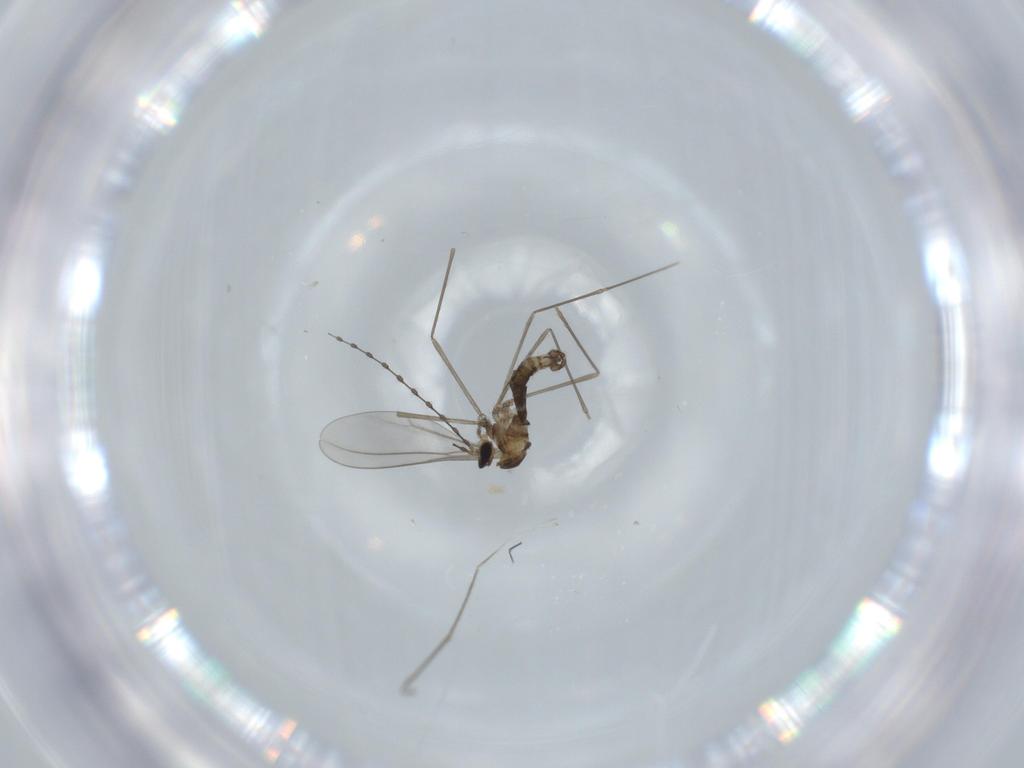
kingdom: Animalia
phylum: Arthropoda
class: Insecta
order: Diptera
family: Cecidomyiidae
